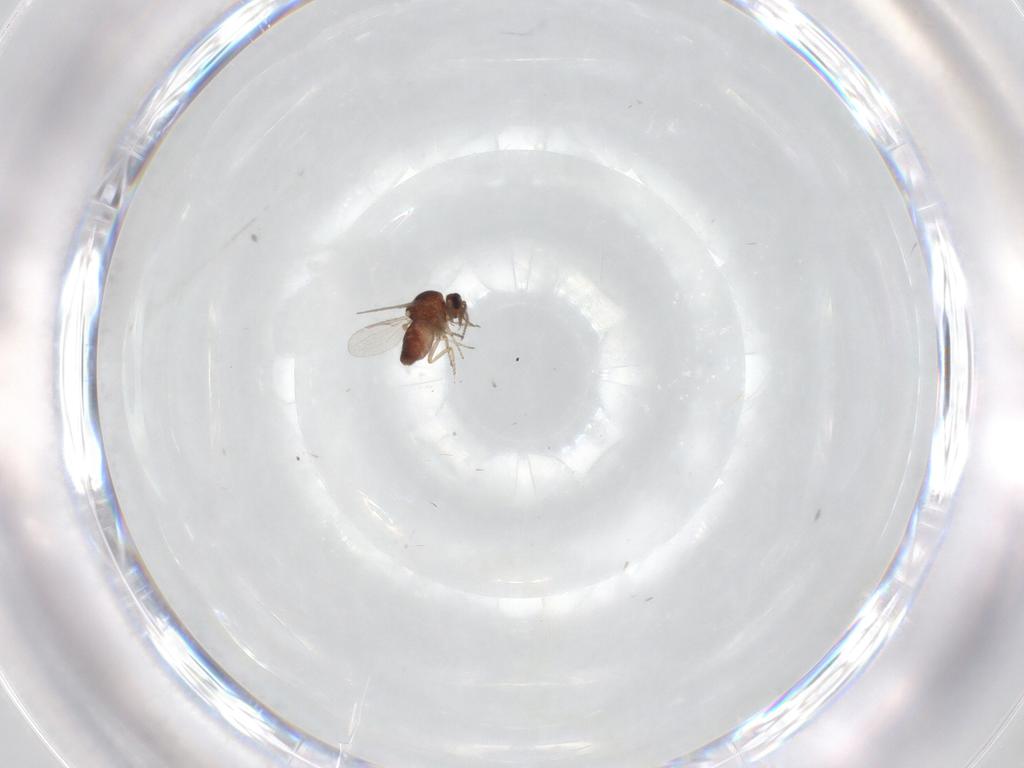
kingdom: Animalia
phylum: Arthropoda
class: Insecta
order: Diptera
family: Ceratopogonidae
